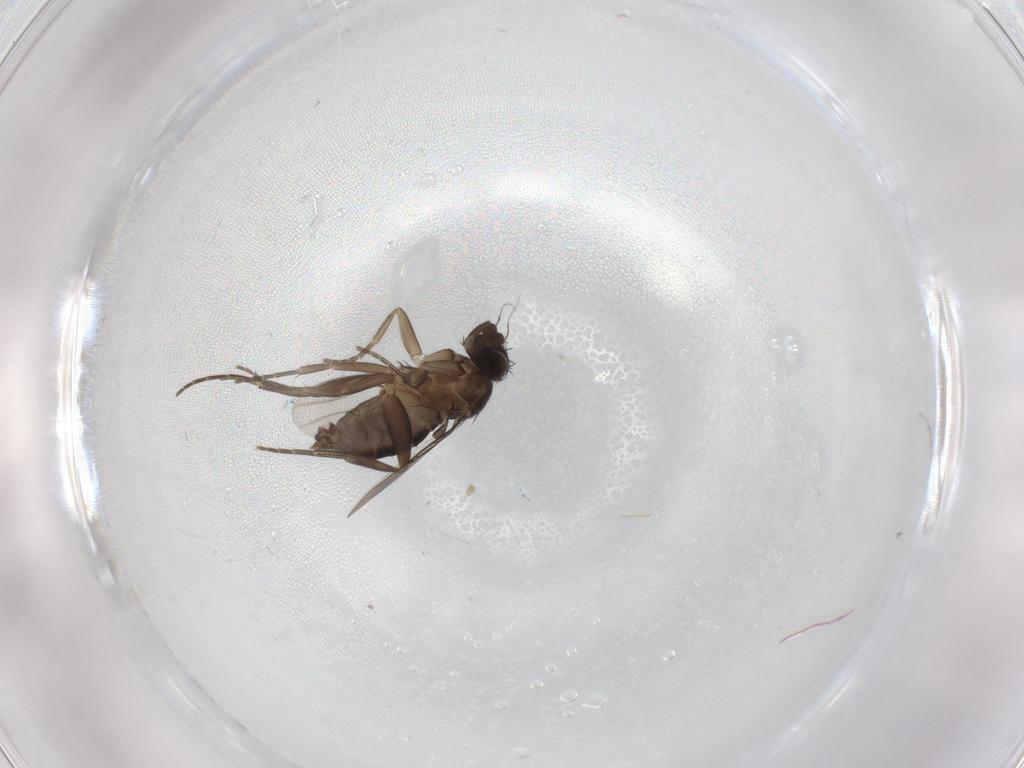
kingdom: Animalia
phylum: Arthropoda
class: Insecta
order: Diptera
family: Phoridae
